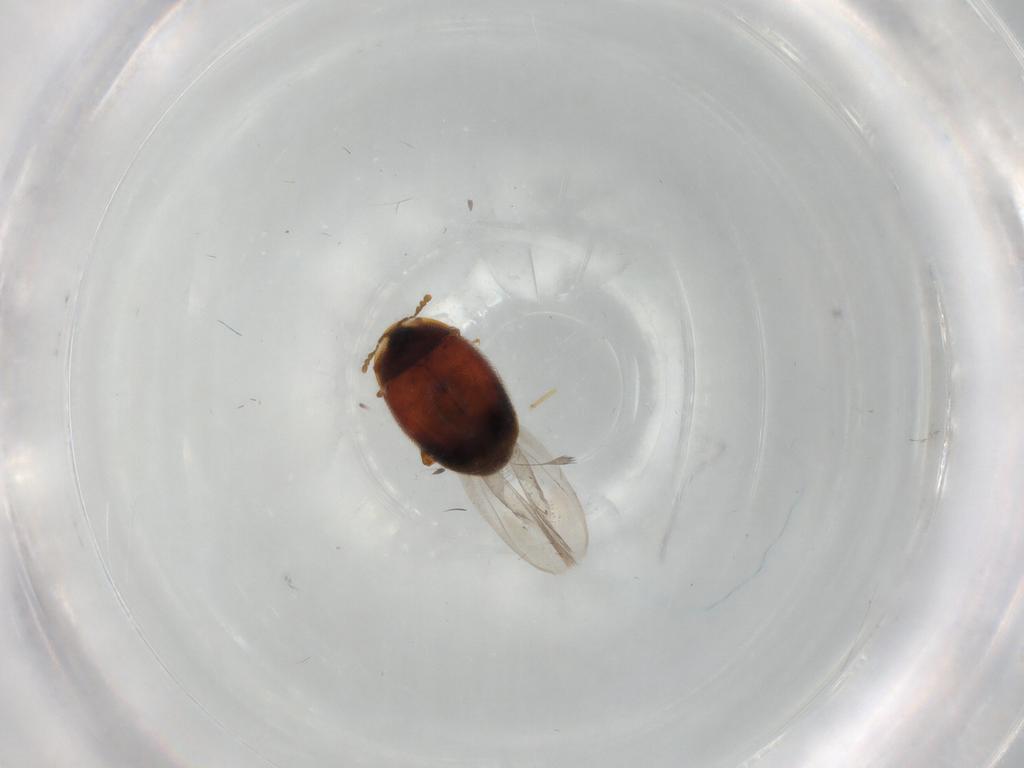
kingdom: Animalia
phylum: Arthropoda
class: Insecta
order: Coleoptera
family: Corylophidae
